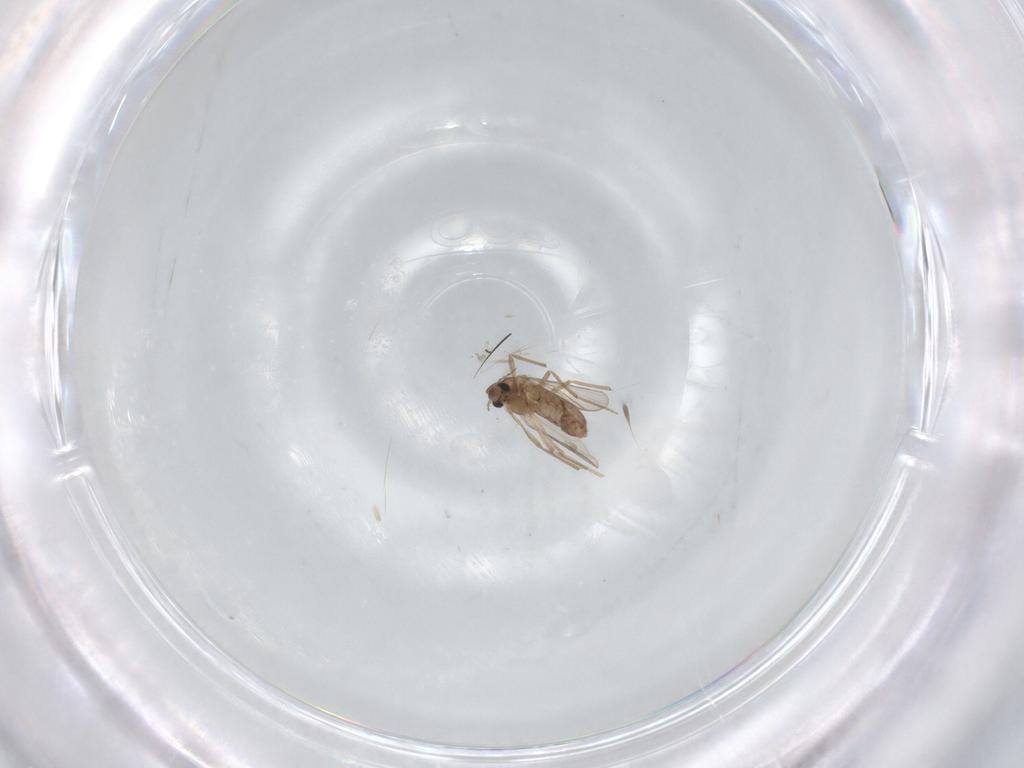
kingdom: Animalia
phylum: Arthropoda
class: Insecta
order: Diptera
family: Chironomidae
